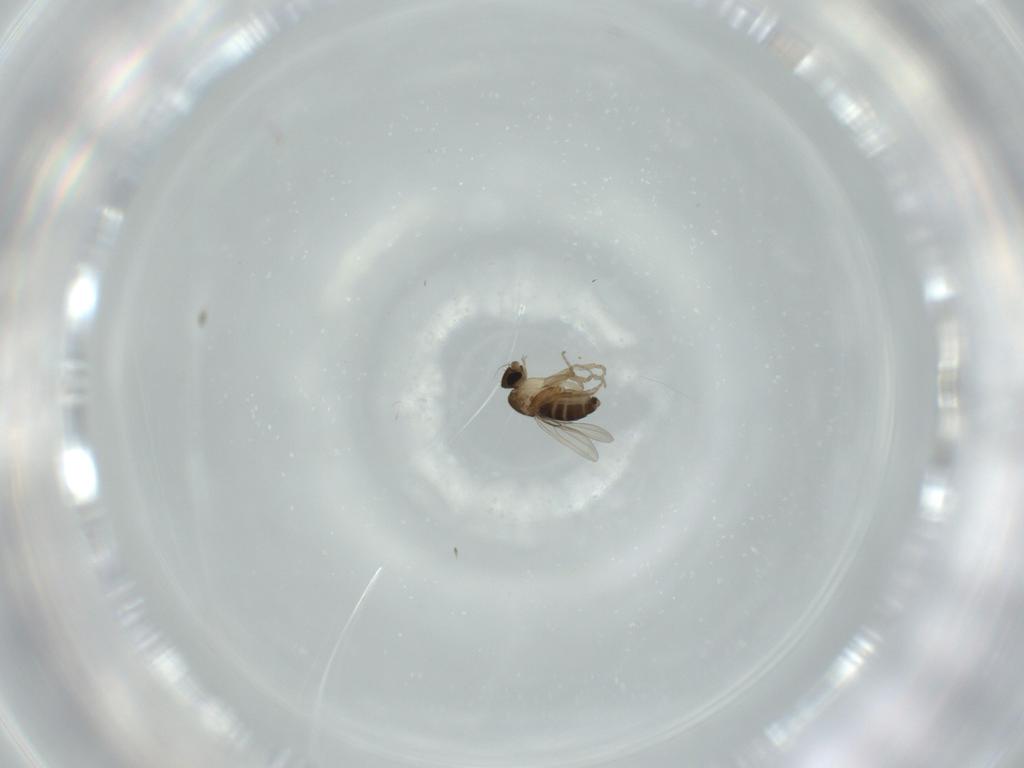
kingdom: Animalia
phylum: Arthropoda
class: Insecta
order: Diptera
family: Phoridae
